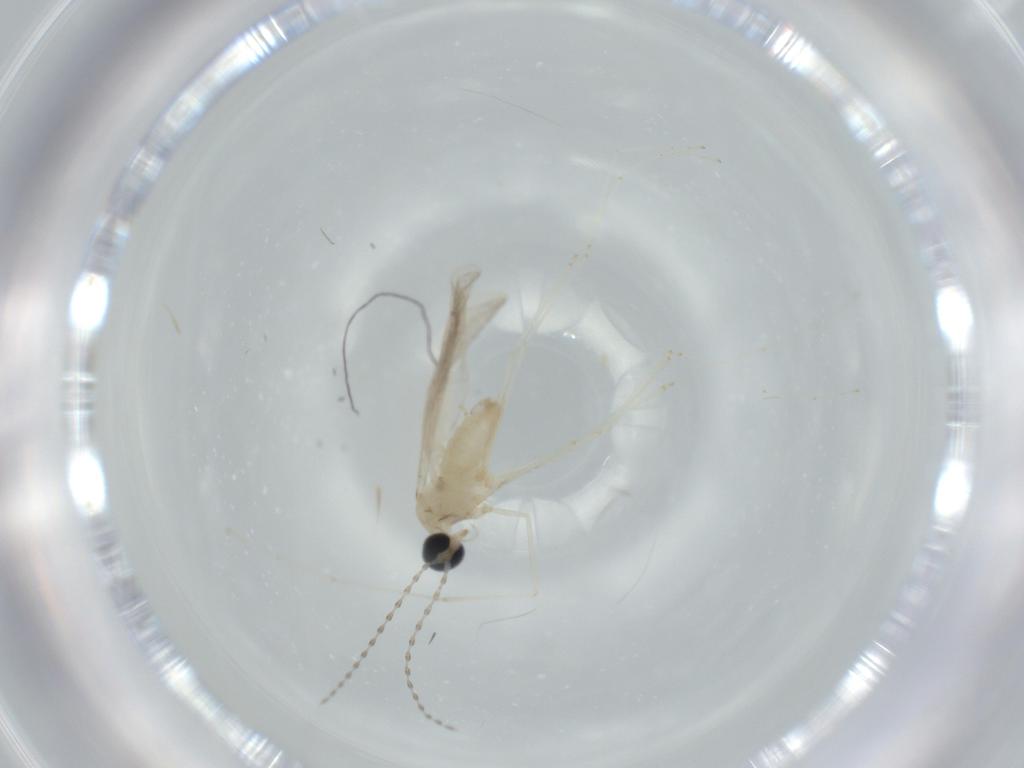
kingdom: Animalia
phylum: Arthropoda
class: Insecta
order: Diptera
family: Cecidomyiidae
